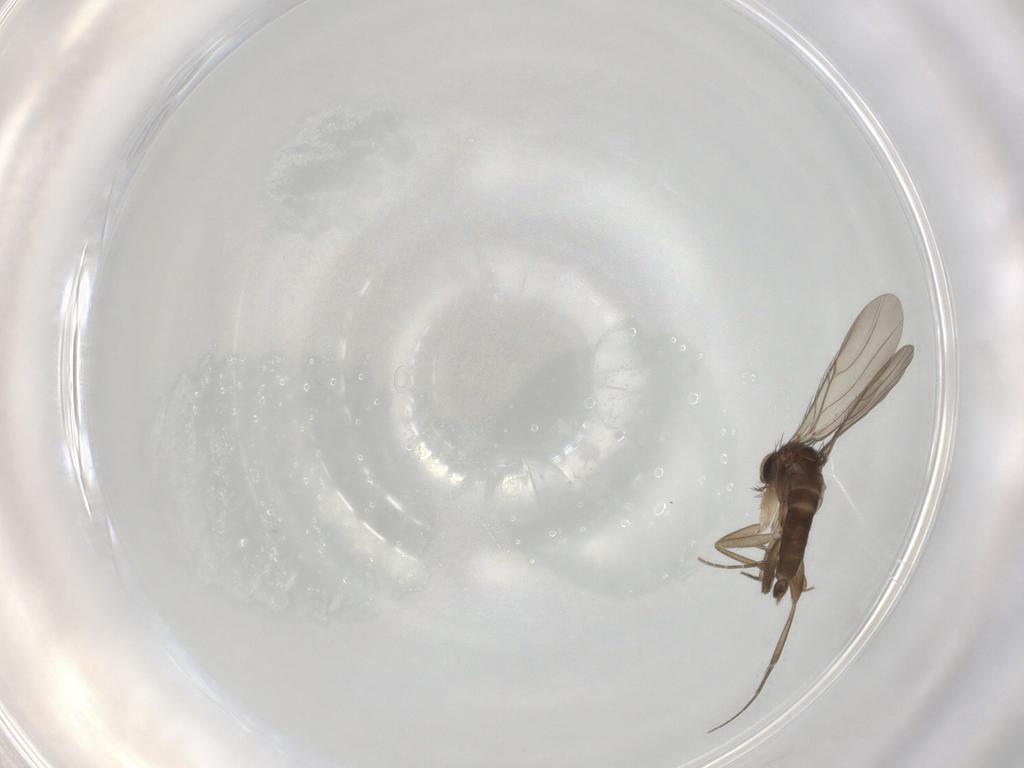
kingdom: Animalia
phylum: Arthropoda
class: Insecta
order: Diptera
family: Phoridae
